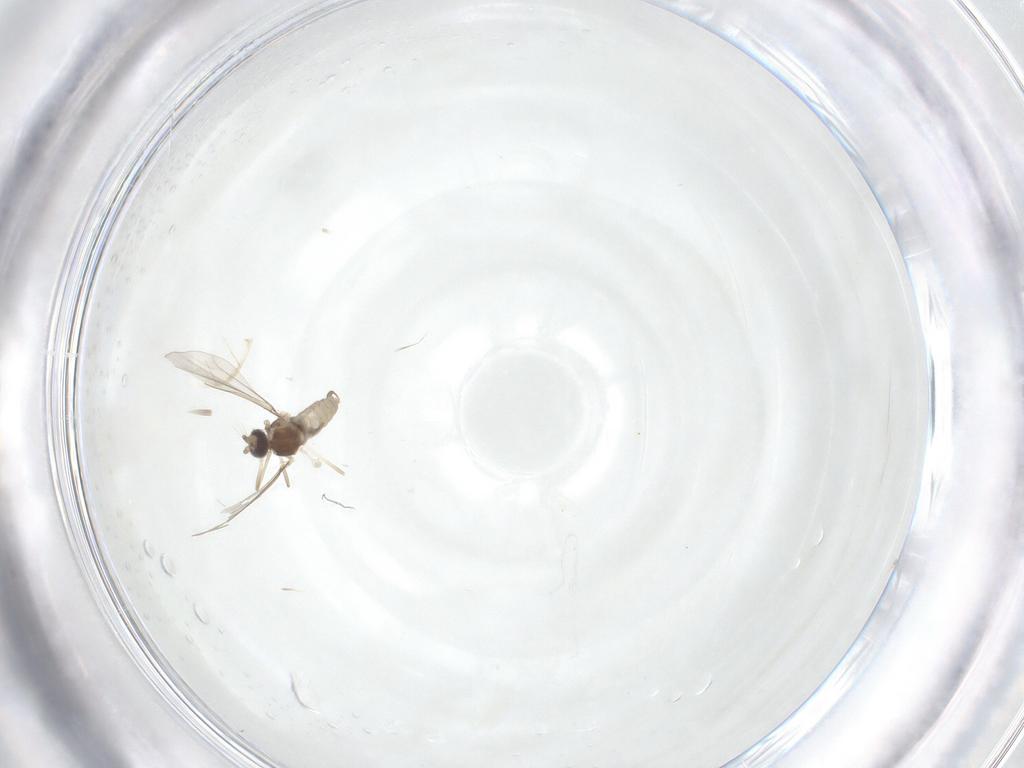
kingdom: Animalia
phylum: Arthropoda
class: Insecta
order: Diptera
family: Cecidomyiidae
